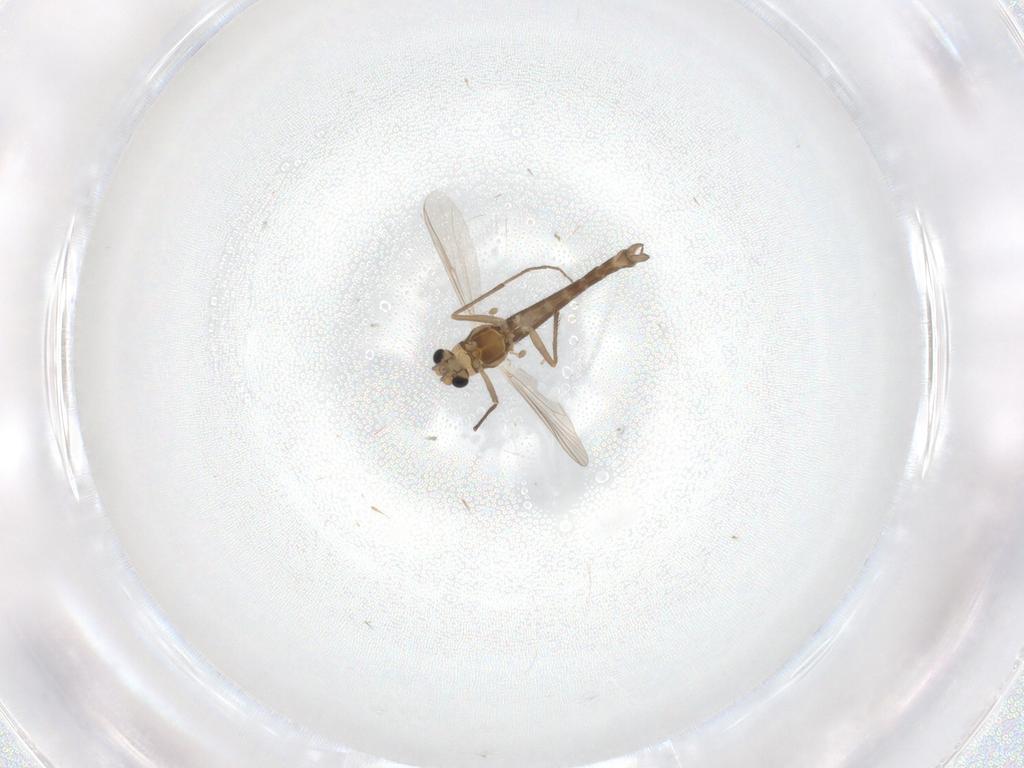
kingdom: Animalia
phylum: Arthropoda
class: Insecta
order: Diptera
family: Chironomidae
